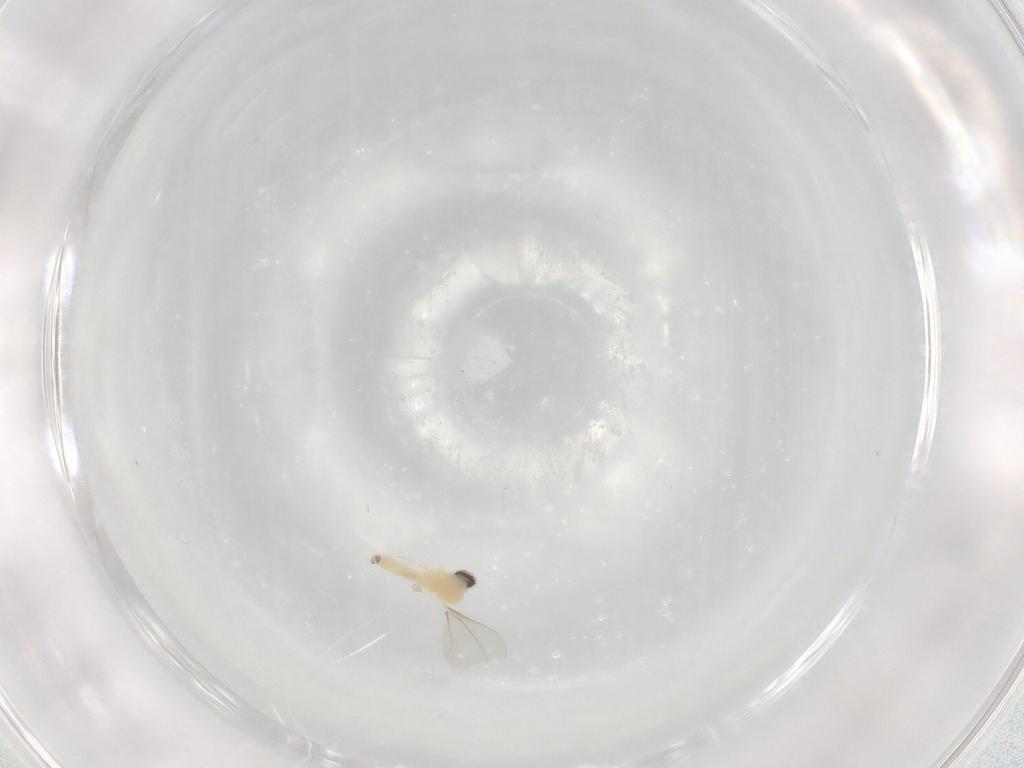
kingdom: Animalia
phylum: Arthropoda
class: Insecta
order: Diptera
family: Cecidomyiidae
